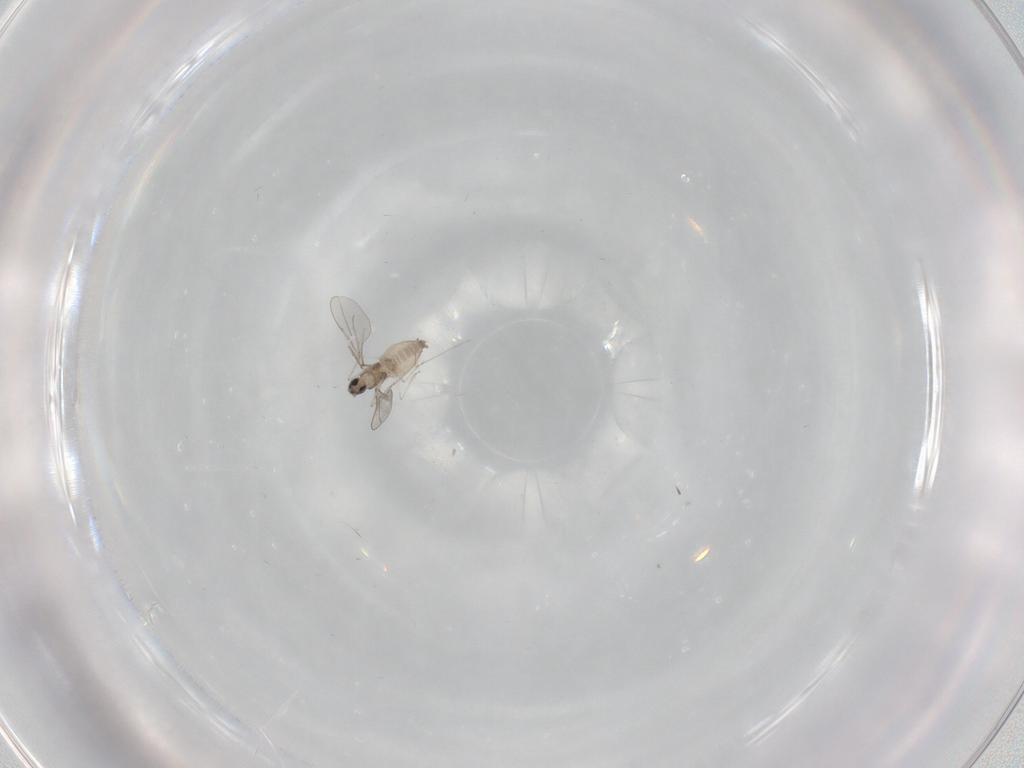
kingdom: Animalia
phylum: Arthropoda
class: Insecta
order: Diptera
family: Cecidomyiidae
